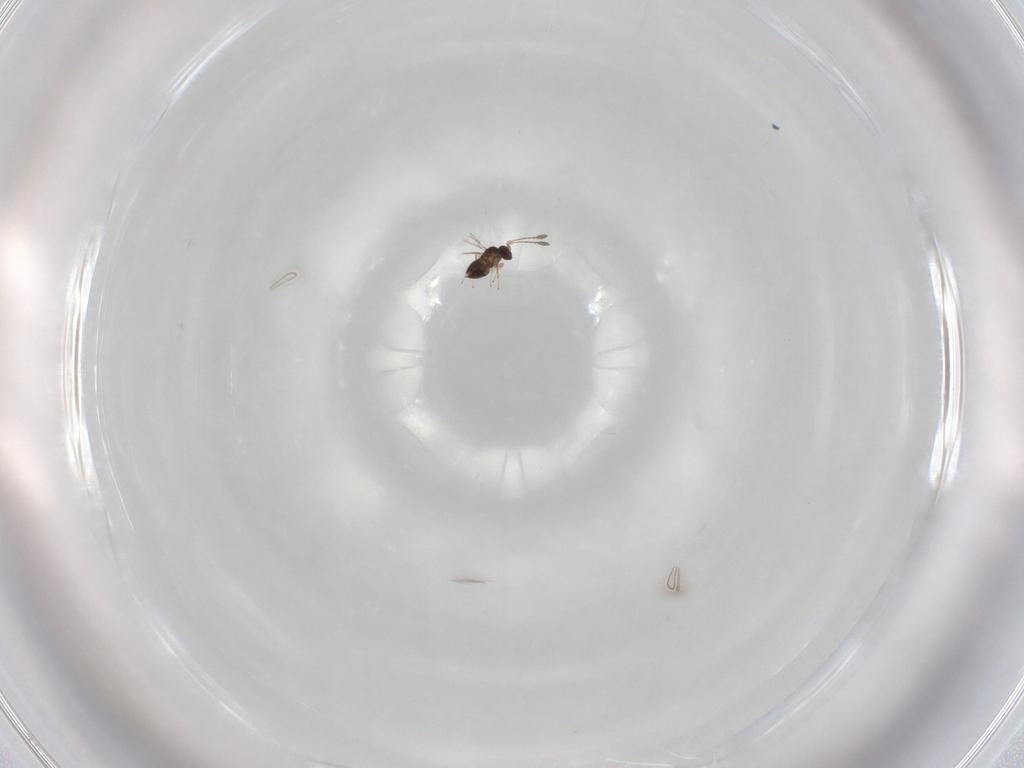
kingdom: Animalia
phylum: Arthropoda
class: Insecta
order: Hymenoptera
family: Mymaridae
